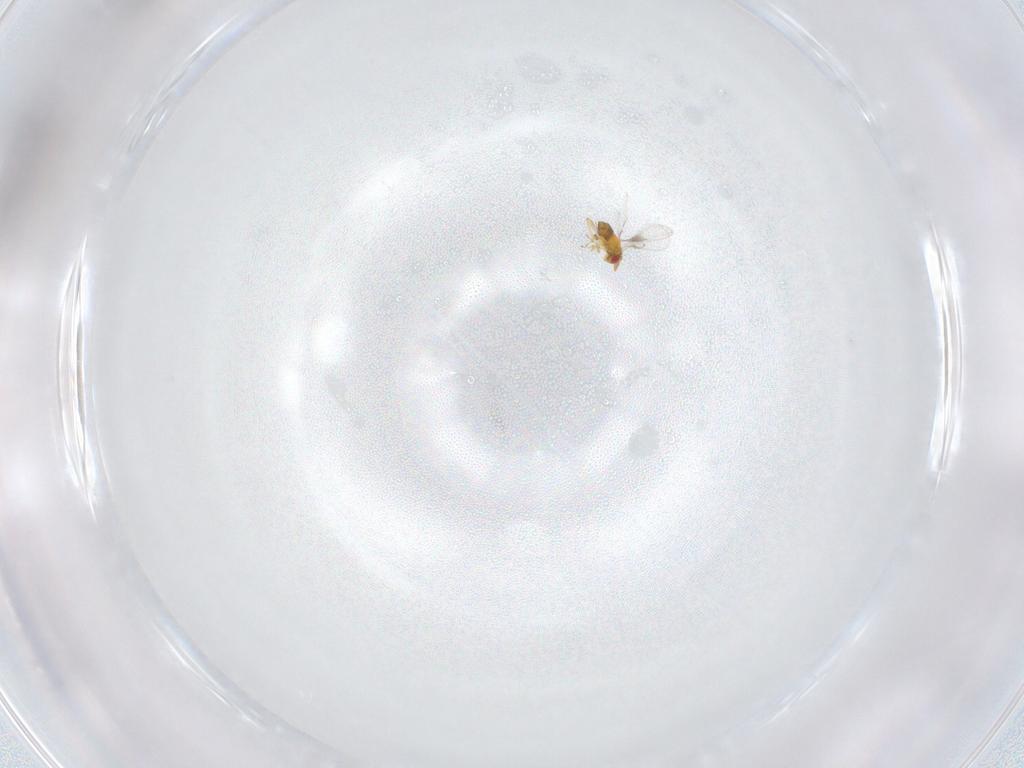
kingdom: Animalia
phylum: Arthropoda
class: Insecta
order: Hymenoptera
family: Trichogrammatidae
